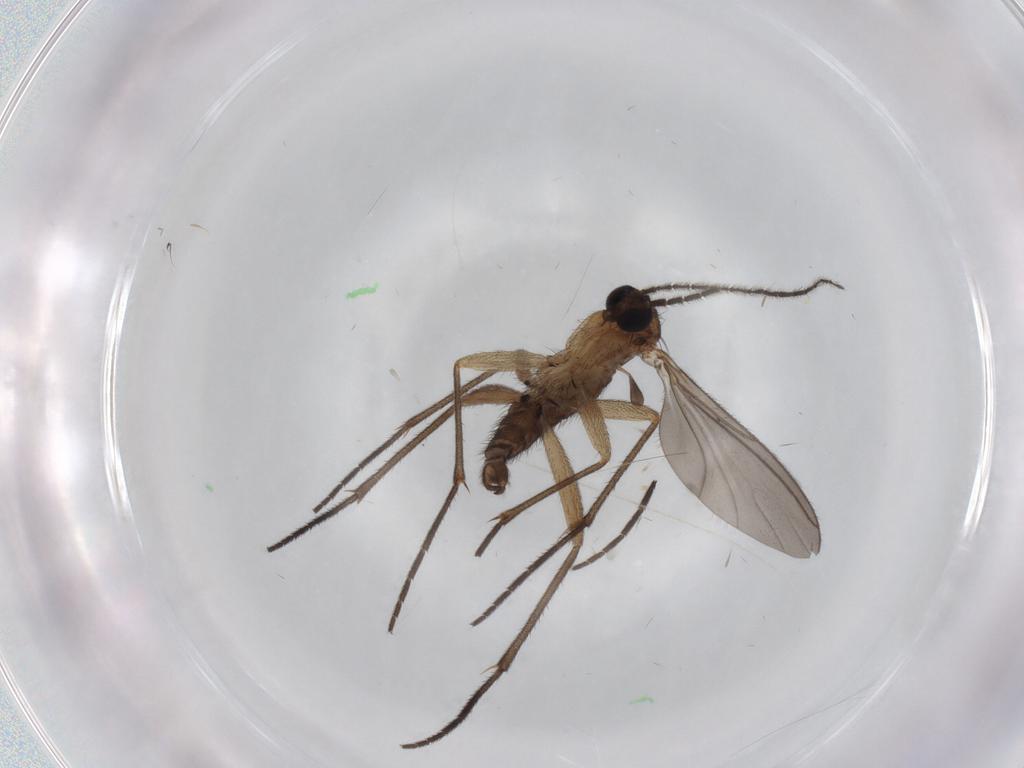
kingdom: Animalia
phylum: Arthropoda
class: Insecta
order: Diptera
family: Sciaridae
